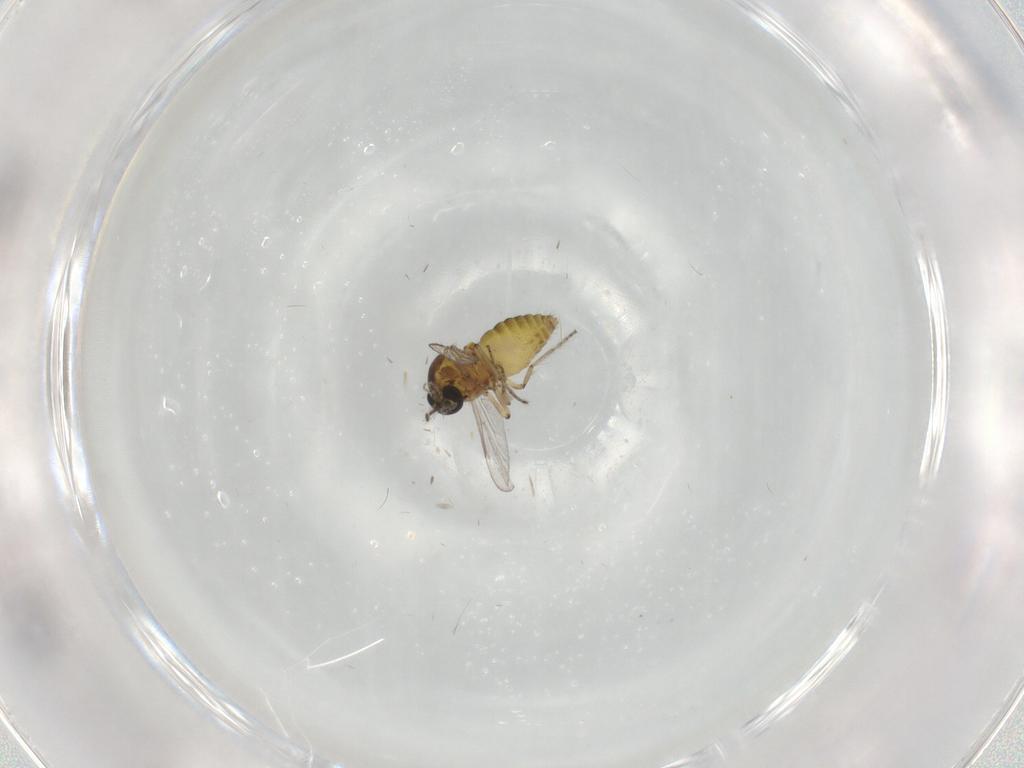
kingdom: Animalia
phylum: Arthropoda
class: Insecta
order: Diptera
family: Ceratopogonidae
